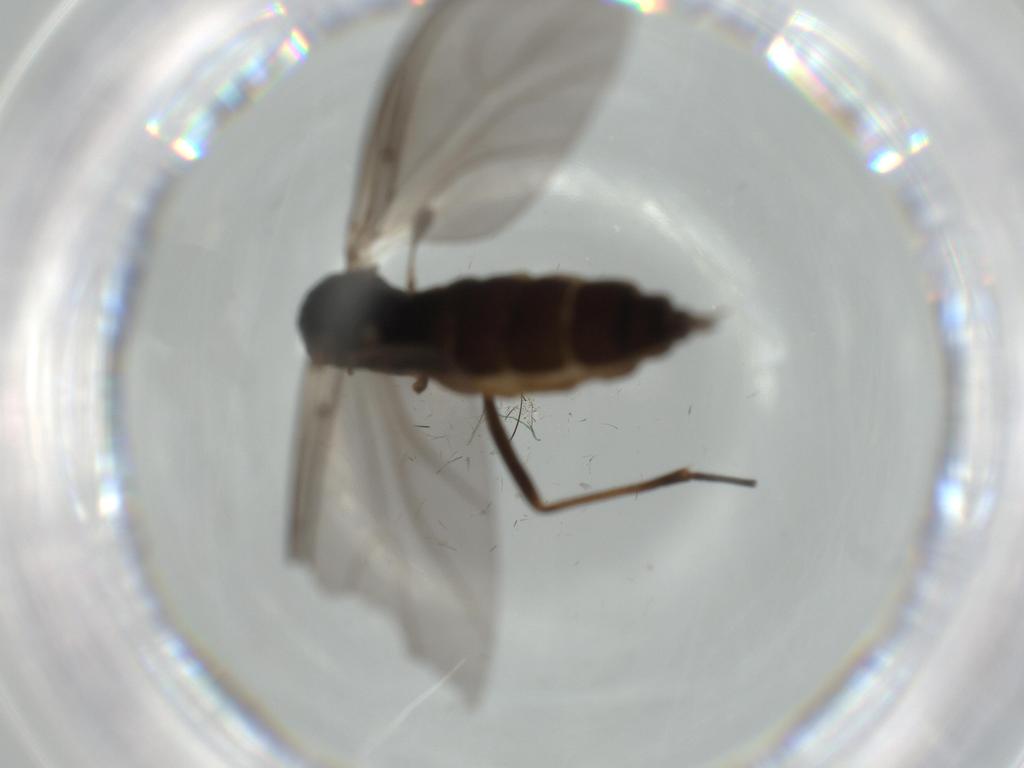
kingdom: Animalia
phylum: Arthropoda
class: Insecta
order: Diptera
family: Sciaridae
